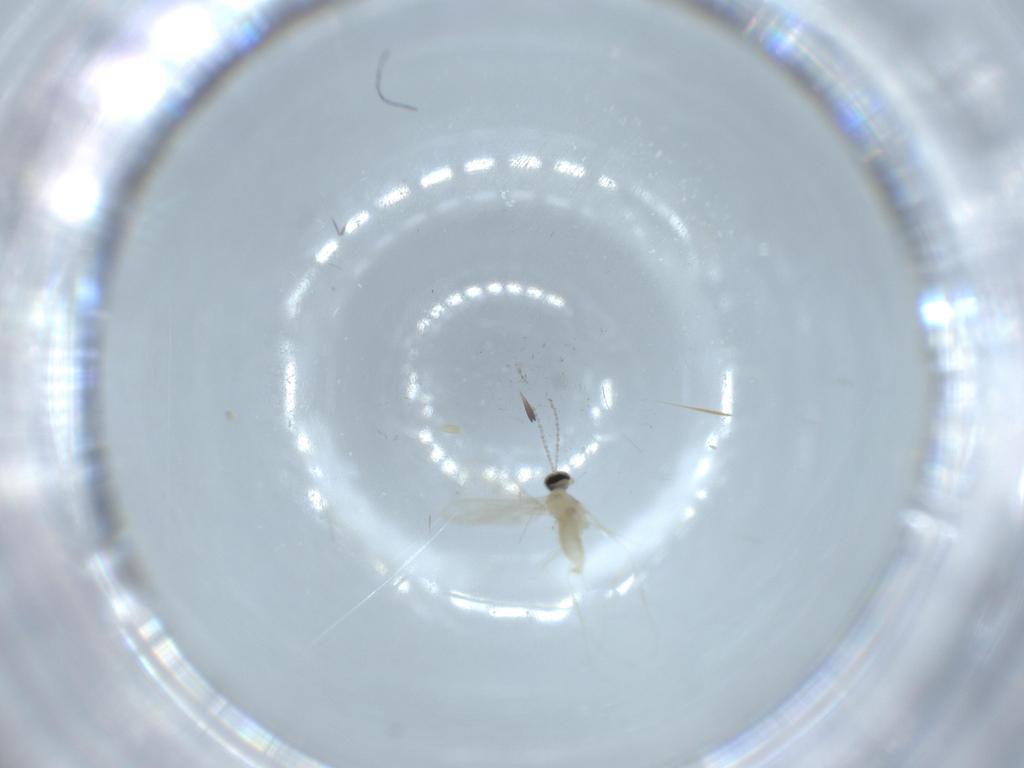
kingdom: Animalia
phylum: Arthropoda
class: Insecta
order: Diptera
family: Cecidomyiidae
